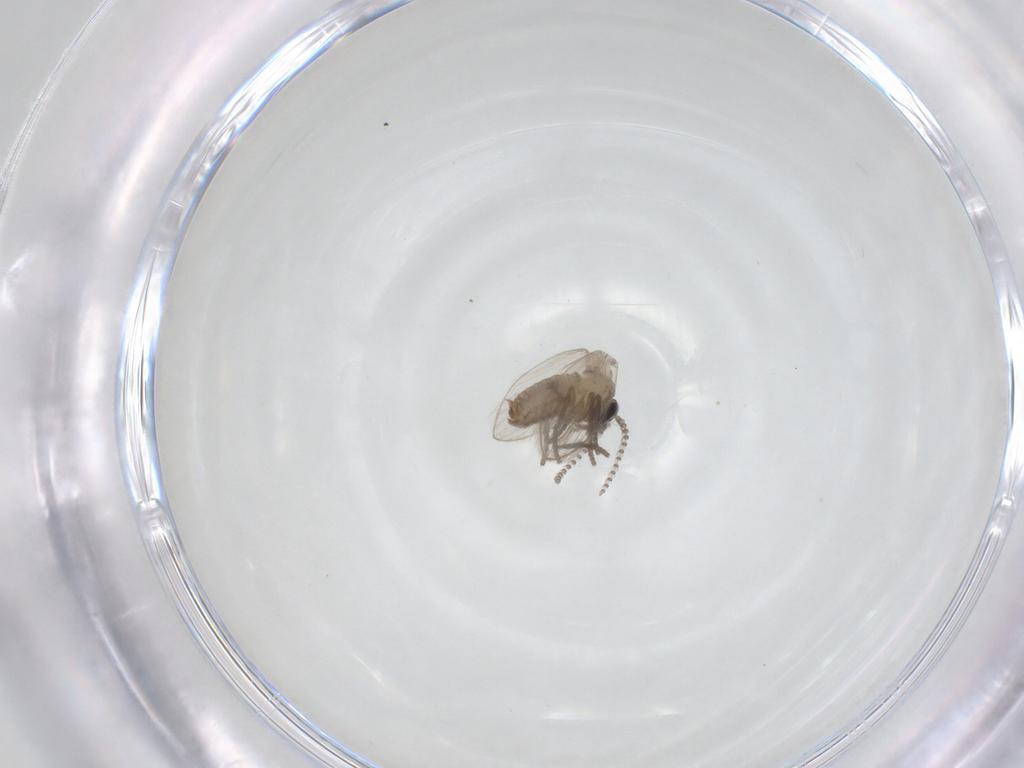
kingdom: Animalia
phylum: Arthropoda
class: Insecta
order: Diptera
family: Psychodidae
